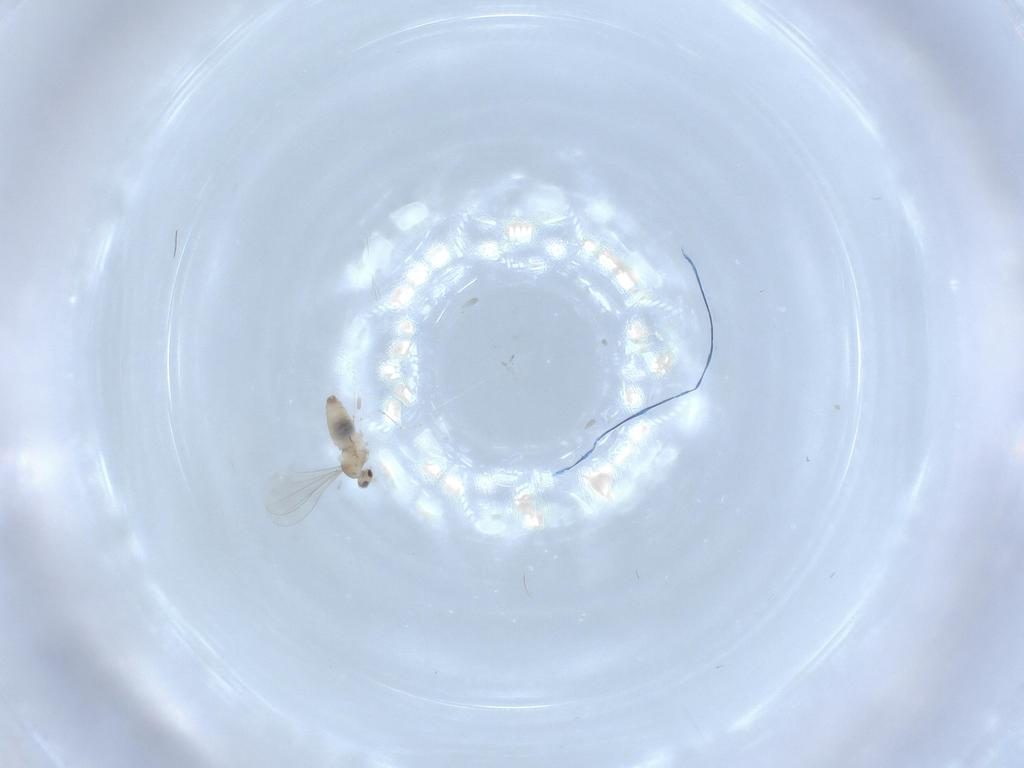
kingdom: Animalia
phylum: Arthropoda
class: Insecta
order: Diptera
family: Cecidomyiidae
